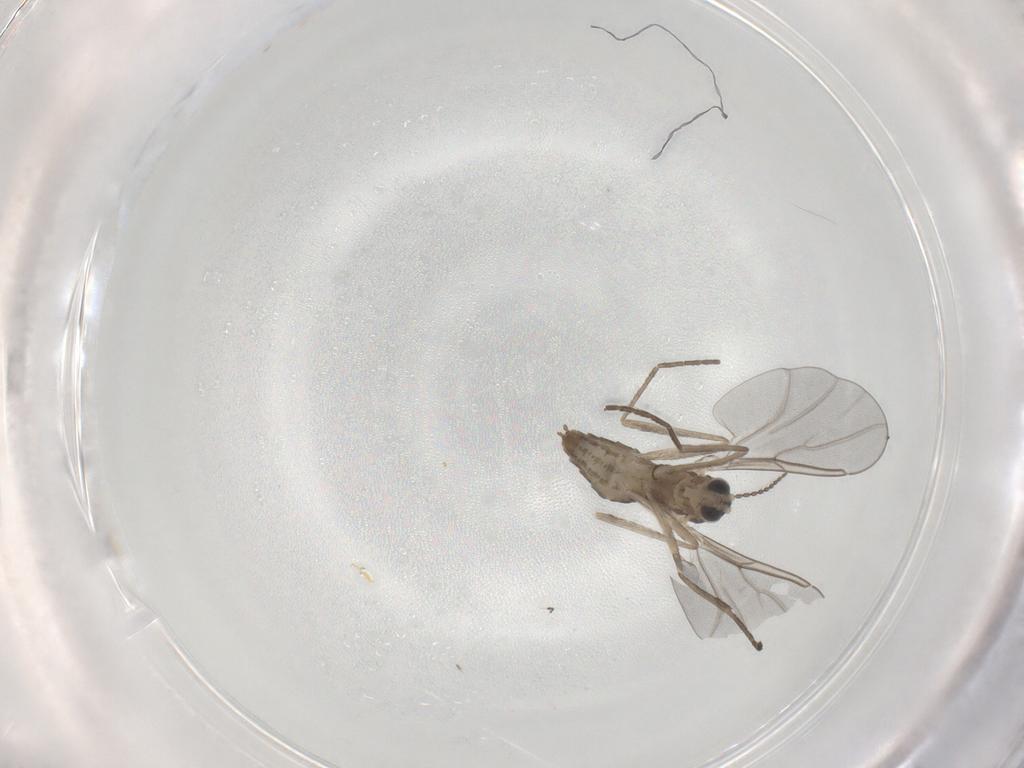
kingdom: Animalia
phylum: Arthropoda
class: Insecta
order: Diptera
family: Cecidomyiidae
